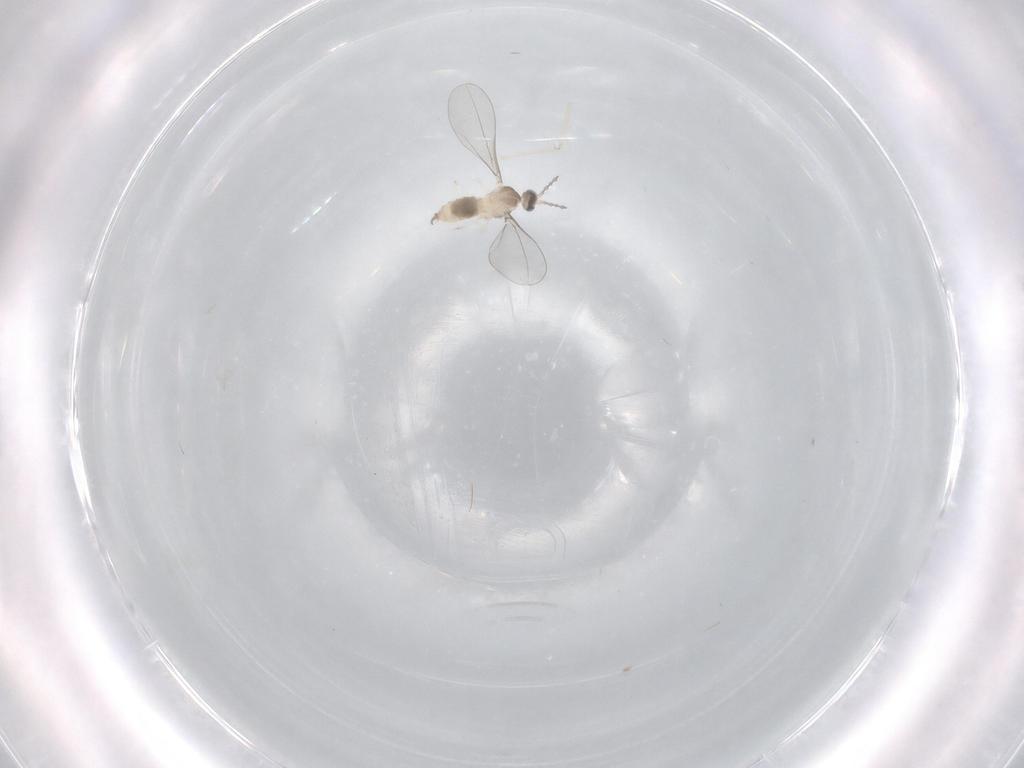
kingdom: Animalia
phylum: Arthropoda
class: Insecta
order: Diptera
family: Cecidomyiidae
